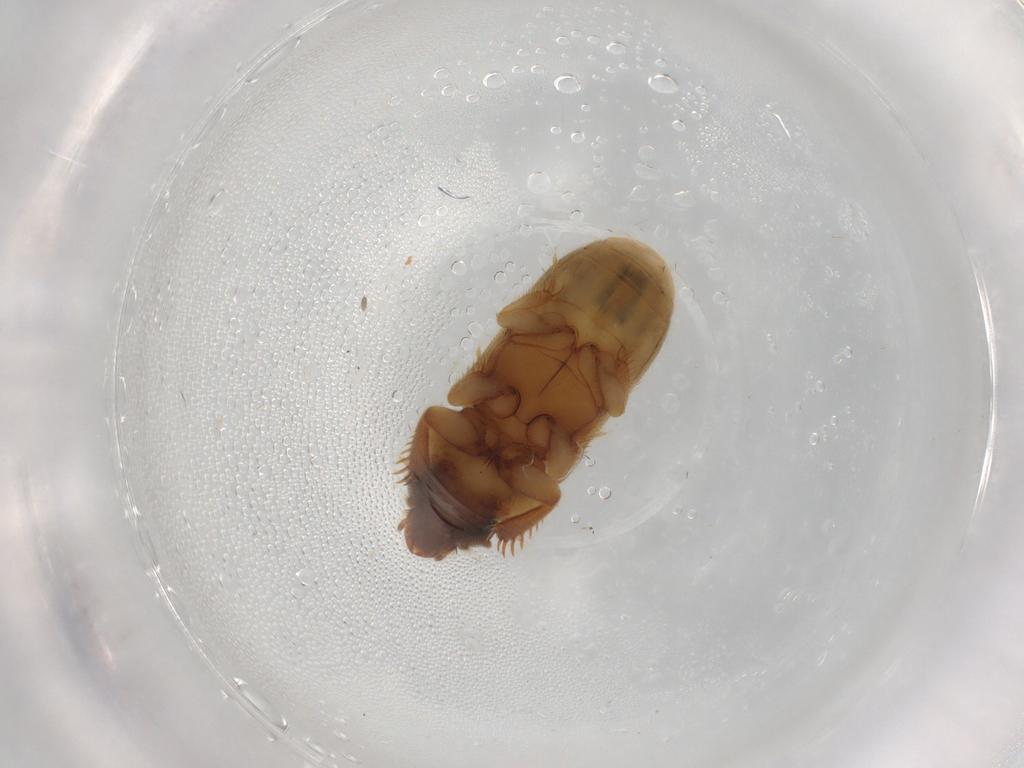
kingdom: Animalia
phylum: Arthropoda
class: Insecta
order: Coleoptera
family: Heteroceridae
